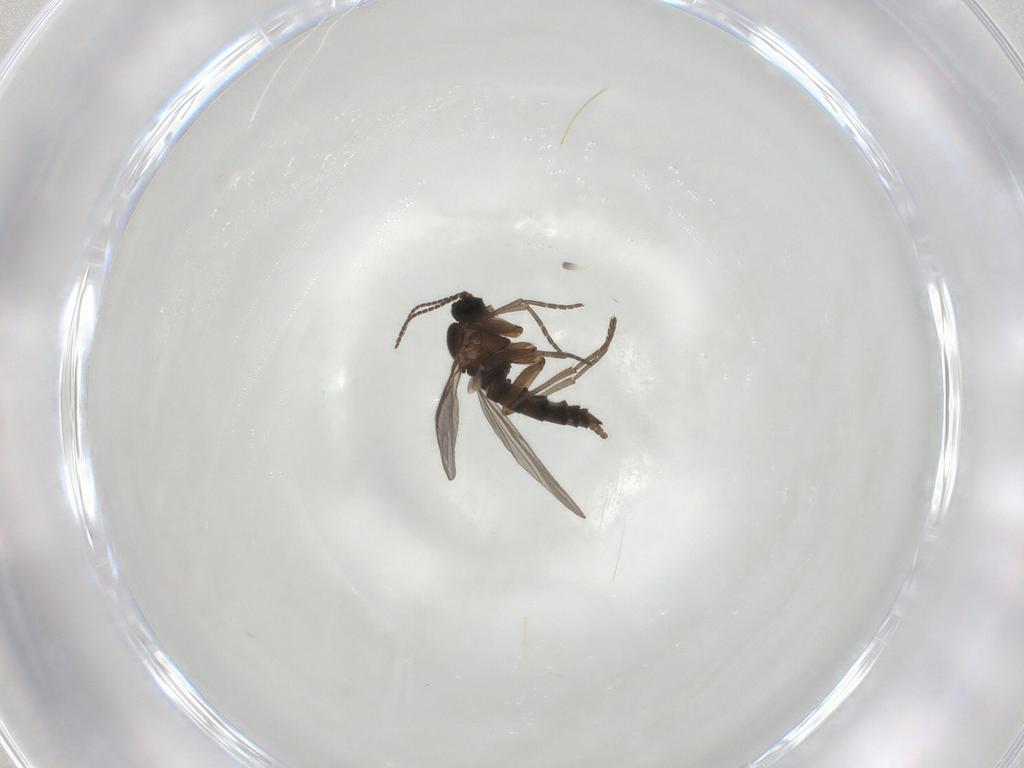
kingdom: Animalia
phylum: Arthropoda
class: Insecta
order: Diptera
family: Sciaridae
